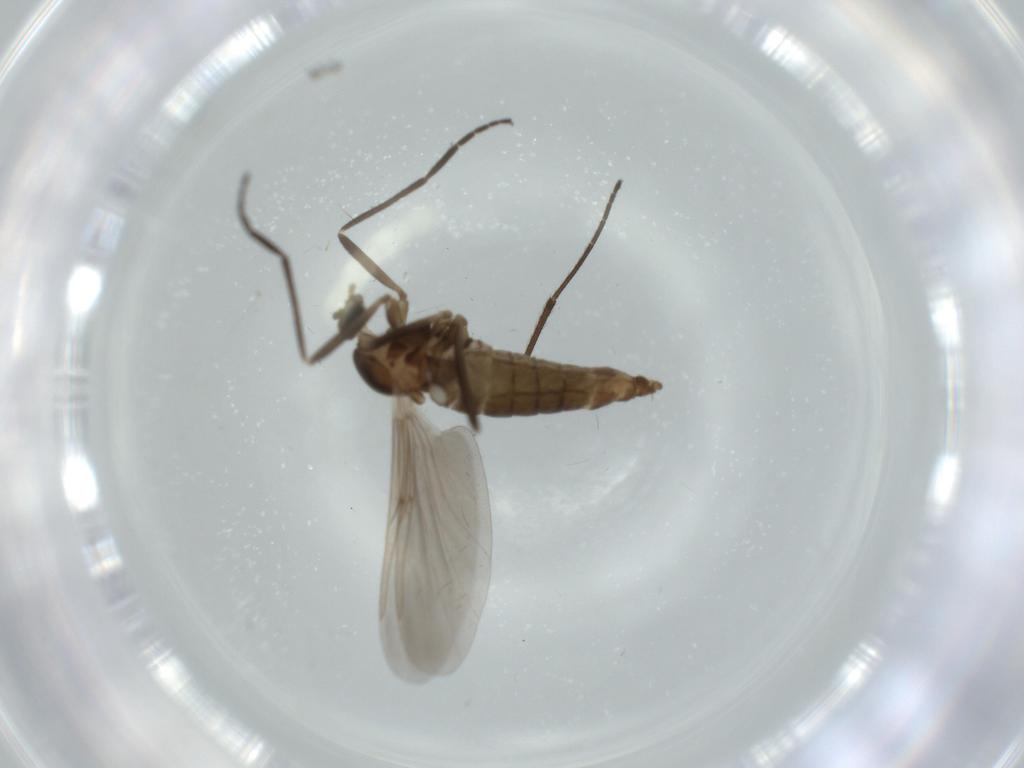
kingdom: Animalia
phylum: Arthropoda
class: Insecta
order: Diptera
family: Cecidomyiidae
